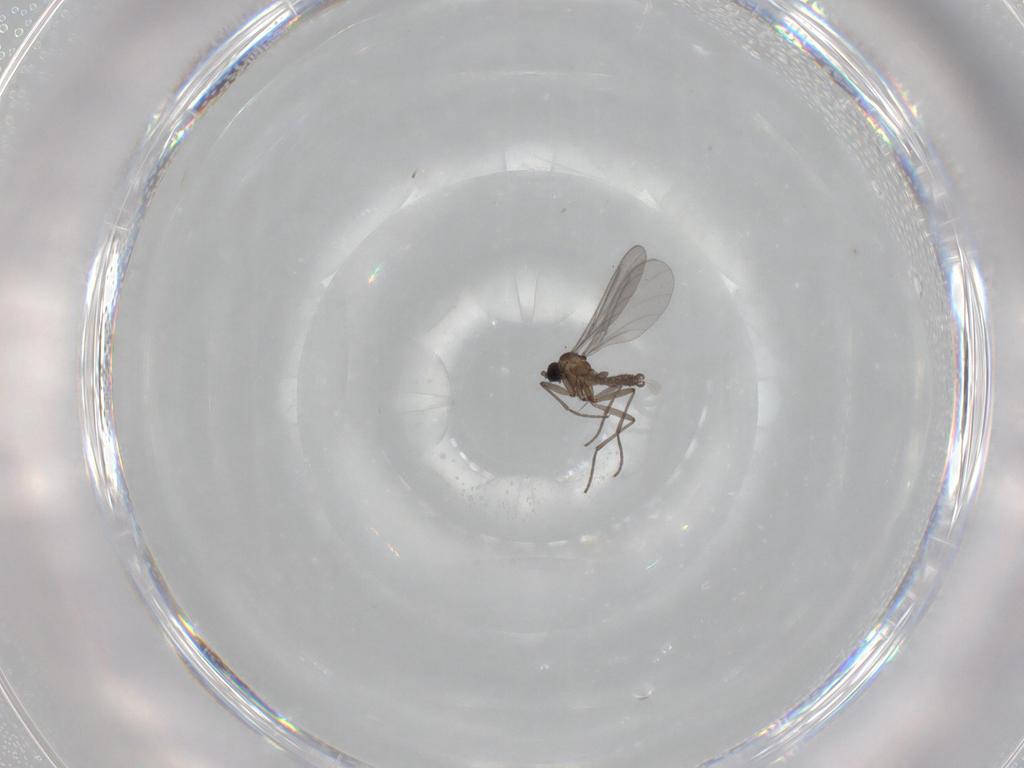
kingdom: Animalia
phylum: Arthropoda
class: Insecta
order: Diptera
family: Sciaridae
